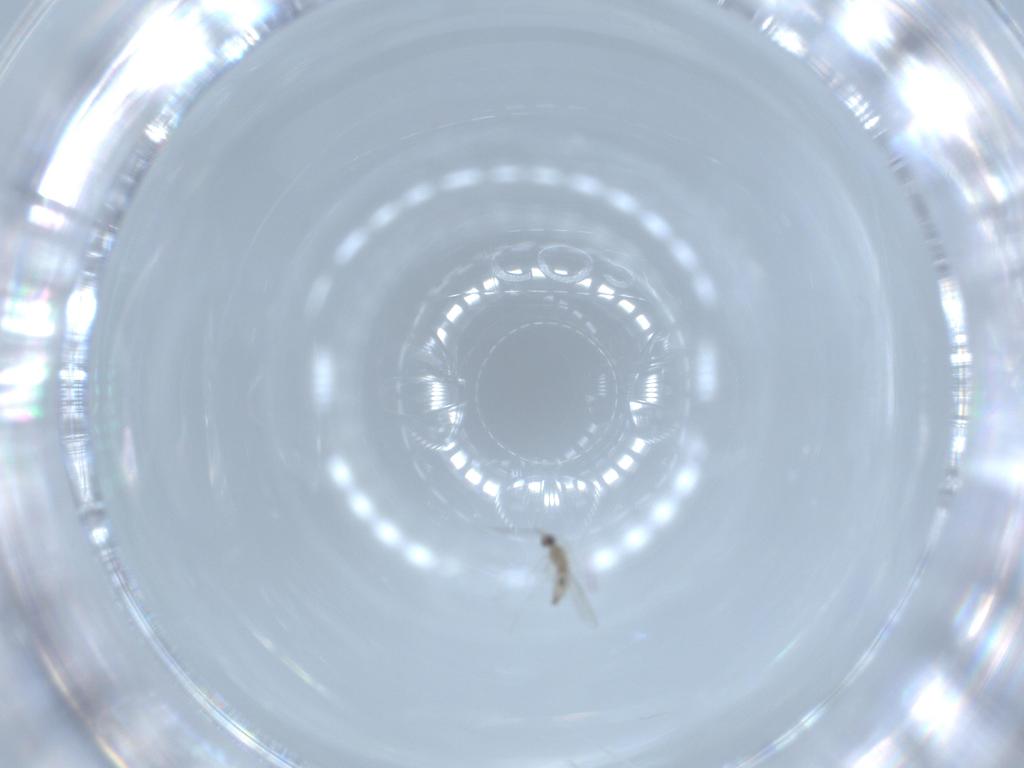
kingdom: Animalia
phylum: Arthropoda
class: Insecta
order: Diptera
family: Cecidomyiidae
